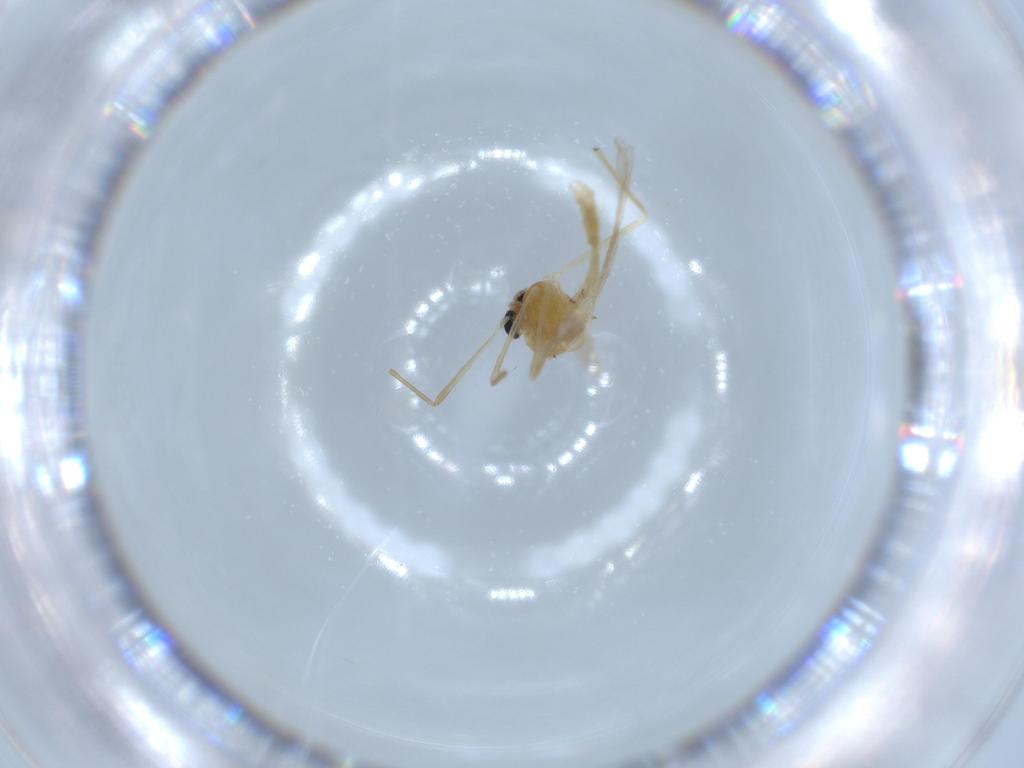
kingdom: Animalia
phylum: Arthropoda
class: Insecta
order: Diptera
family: Chironomidae
